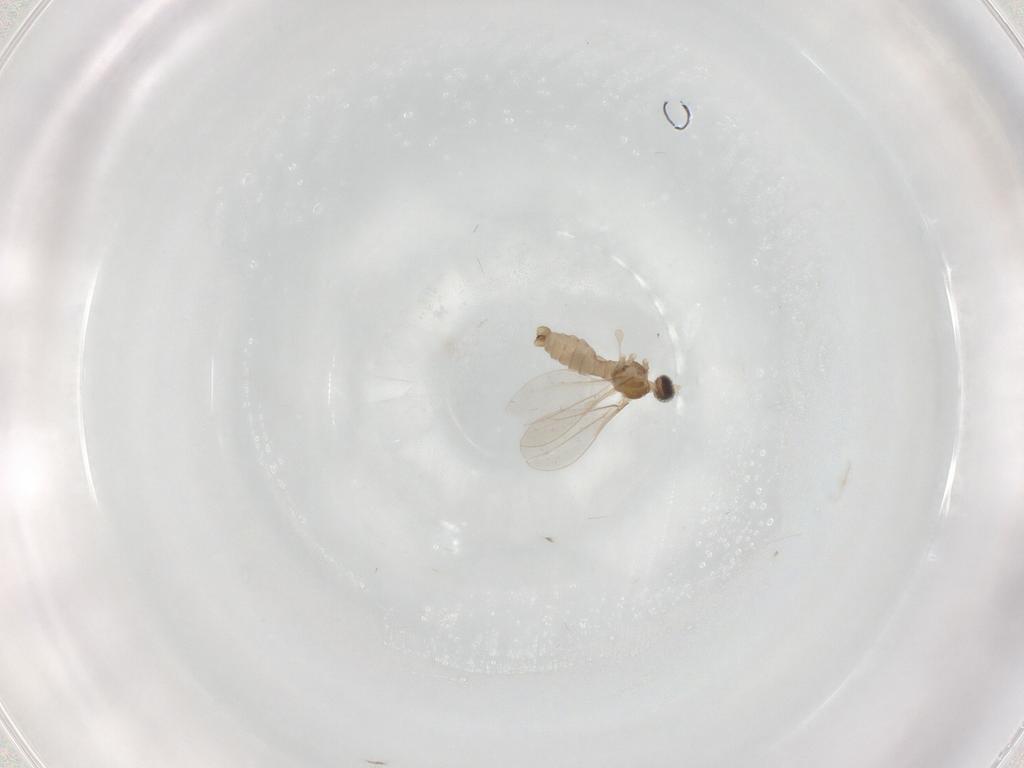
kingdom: Animalia
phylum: Arthropoda
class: Insecta
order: Diptera
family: Cecidomyiidae
